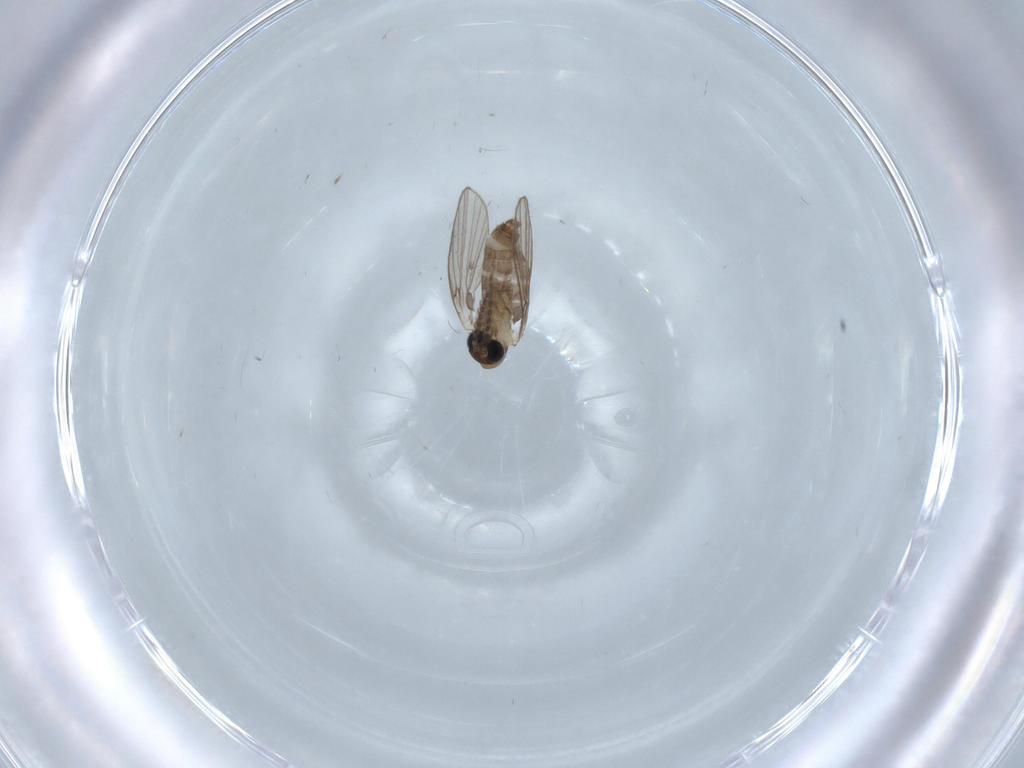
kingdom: Animalia
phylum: Arthropoda
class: Insecta
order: Diptera
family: Psychodidae
